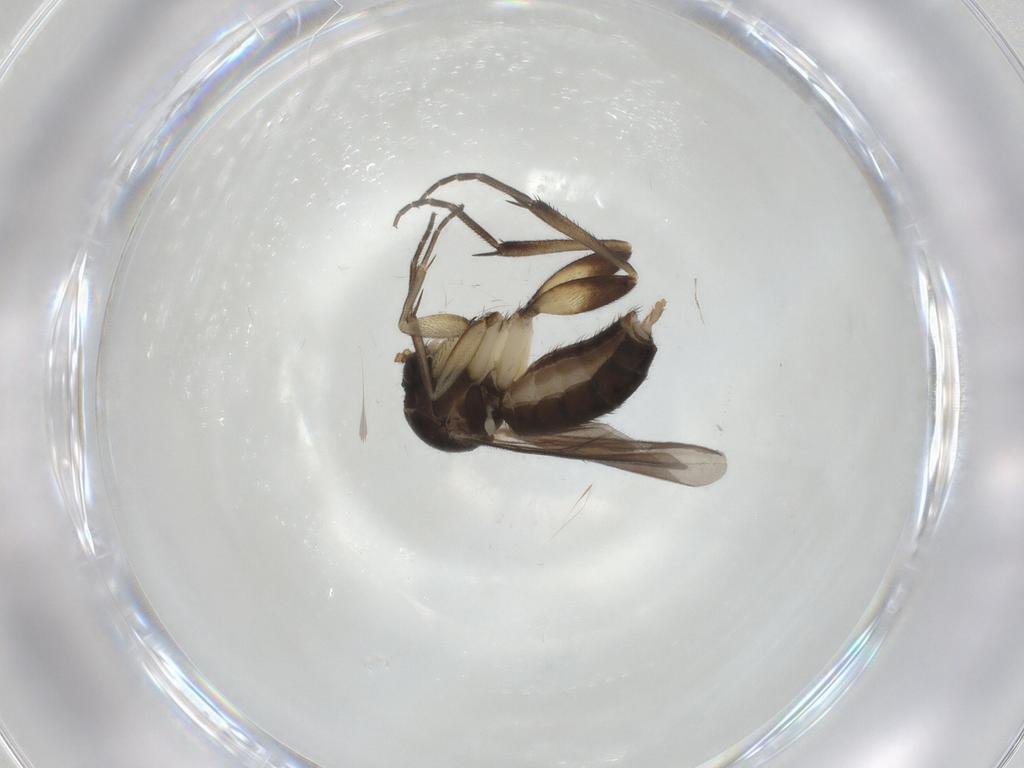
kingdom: Animalia
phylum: Arthropoda
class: Insecta
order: Diptera
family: Mycetophilidae
